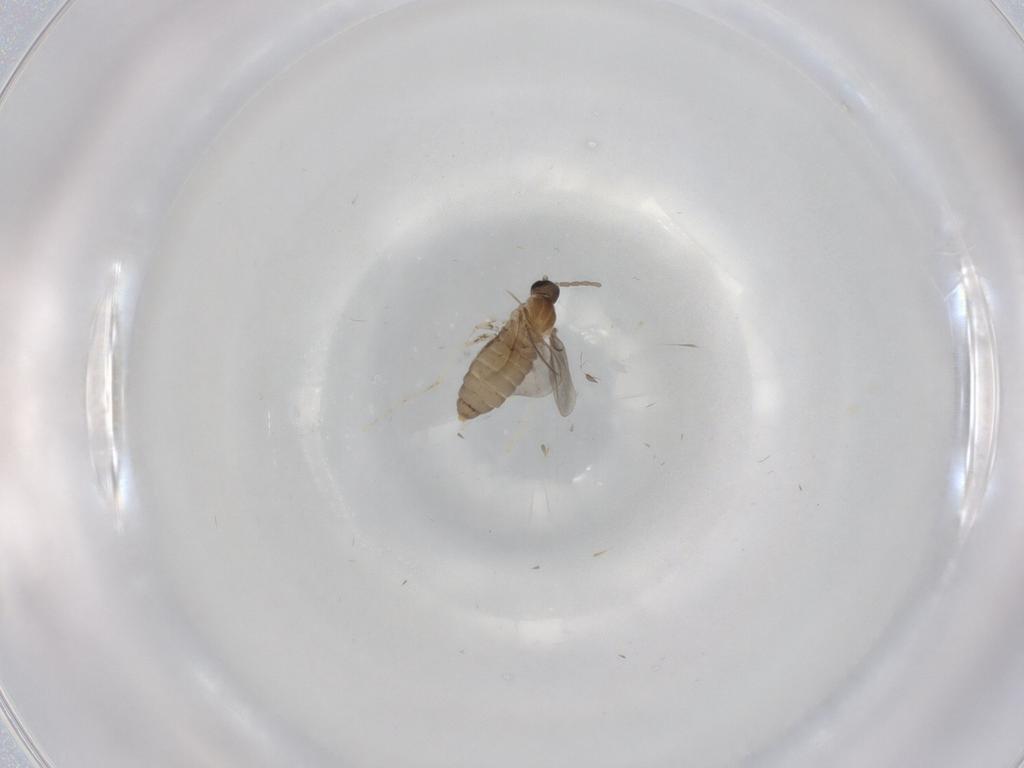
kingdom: Animalia
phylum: Arthropoda
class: Insecta
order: Diptera
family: Cecidomyiidae
